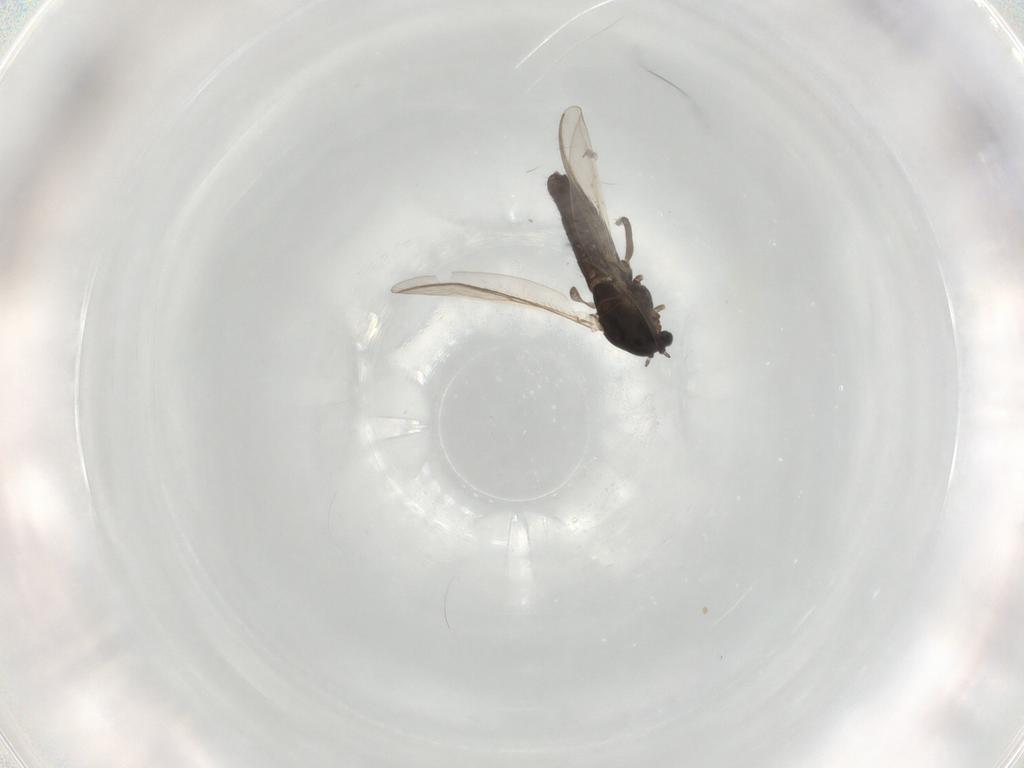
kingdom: Animalia
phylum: Arthropoda
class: Insecta
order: Diptera
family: Chironomidae
